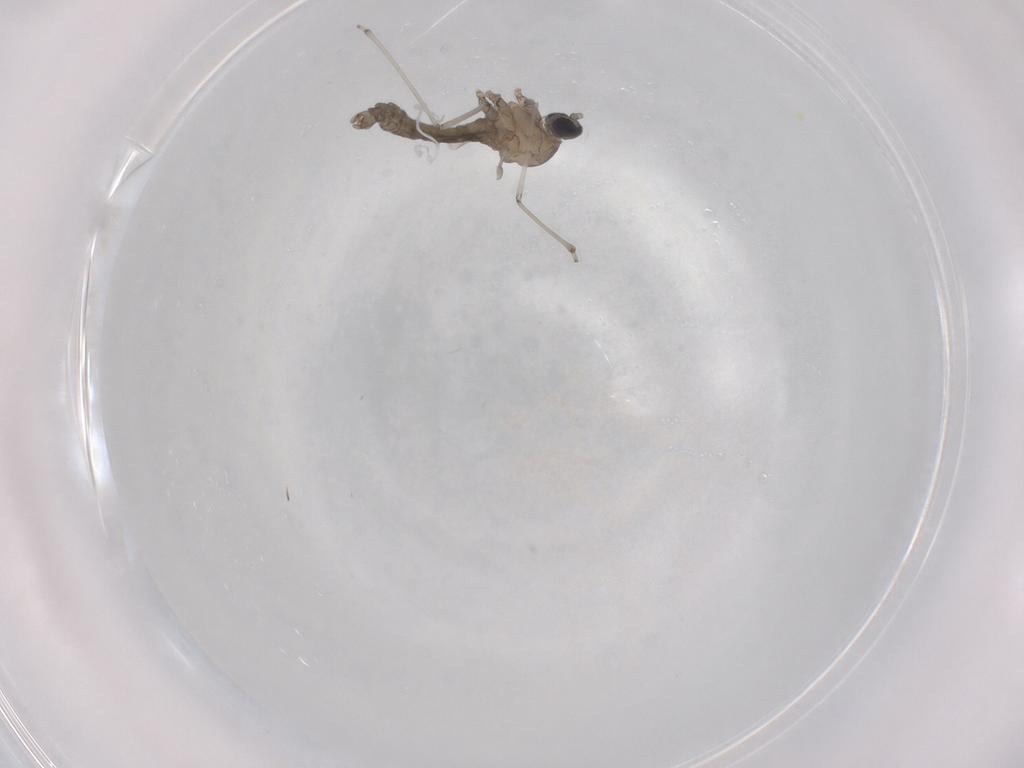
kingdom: Animalia
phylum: Arthropoda
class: Insecta
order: Diptera
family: Cecidomyiidae
